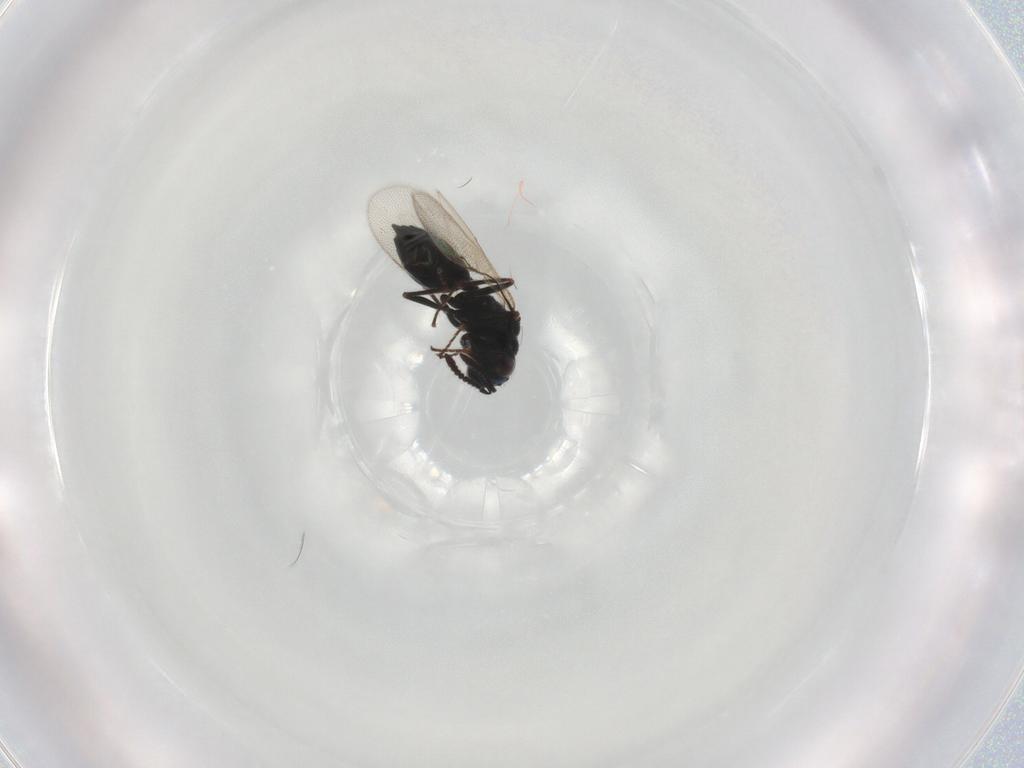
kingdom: Animalia
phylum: Arthropoda
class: Insecta
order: Hymenoptera
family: Chalcidoidea_incertae_sedis
